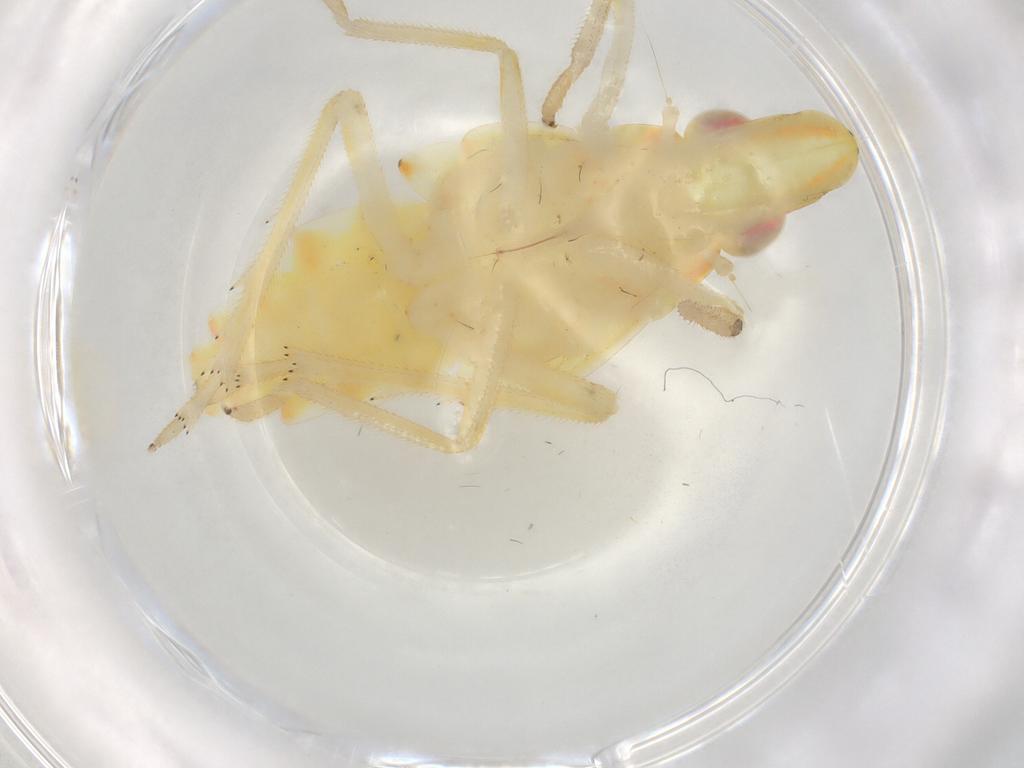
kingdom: Animalia
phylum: Arthropoda
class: Insecta
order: Hemiptera
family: Tropiduchidae
